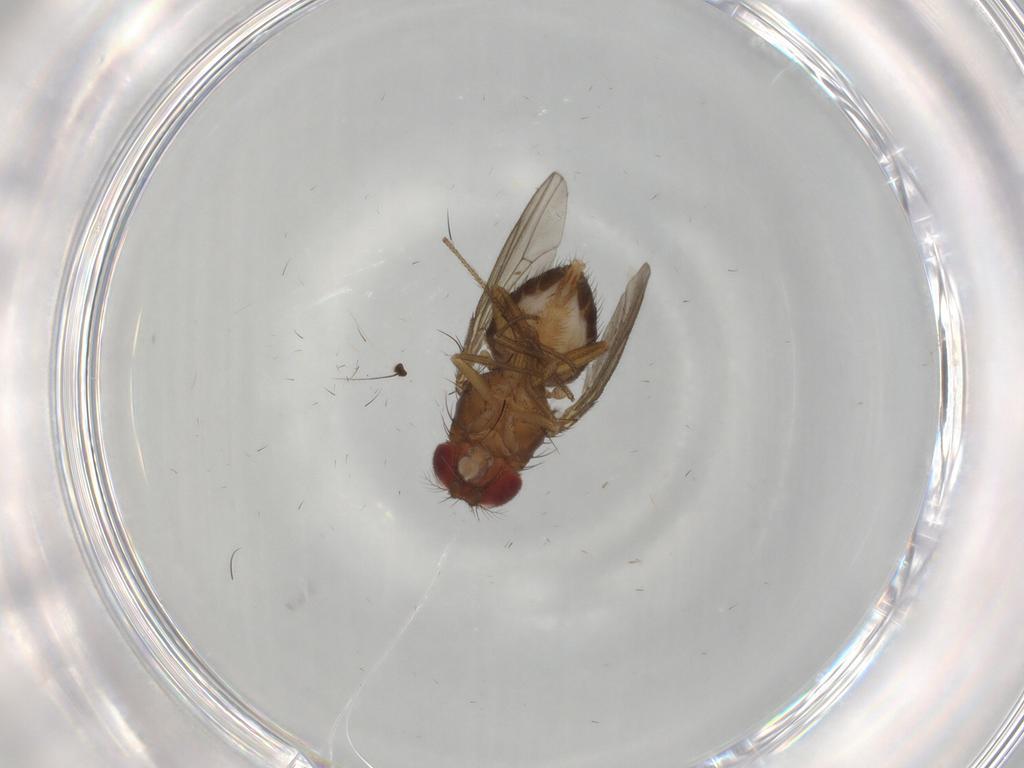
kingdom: Animalia
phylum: Arthropoda
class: Insecta
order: Diptera
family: Drosophilidae
